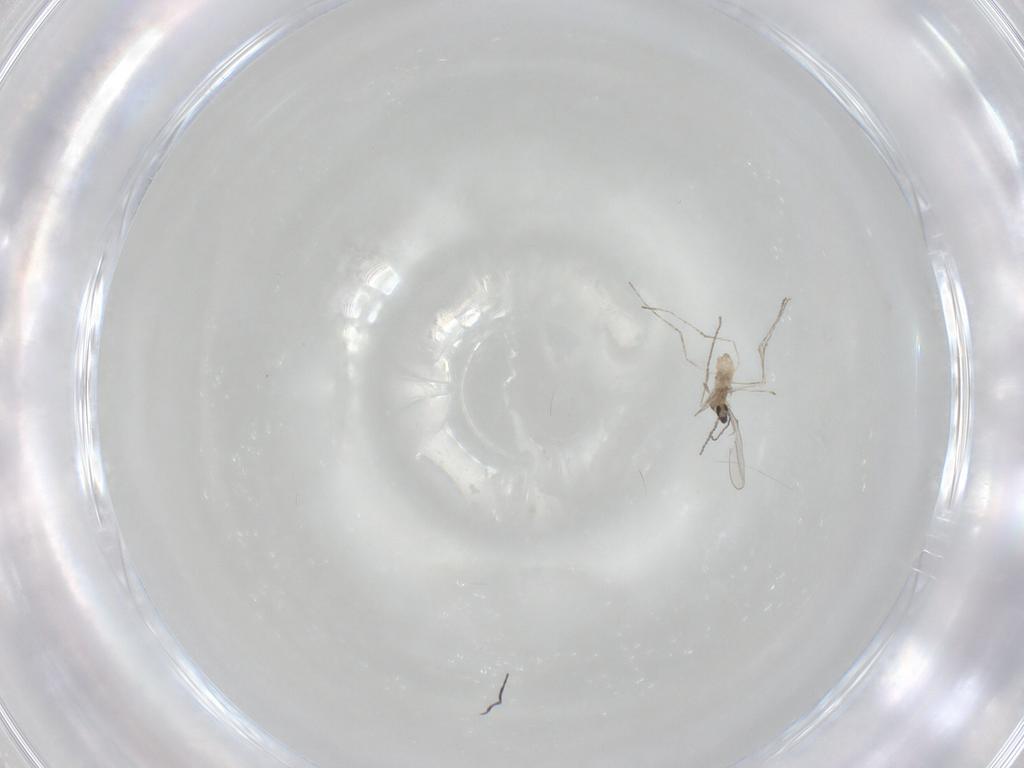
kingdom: Animalia
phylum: Arthropoda
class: Insecta
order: Diptera
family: Cecidomyiidae
